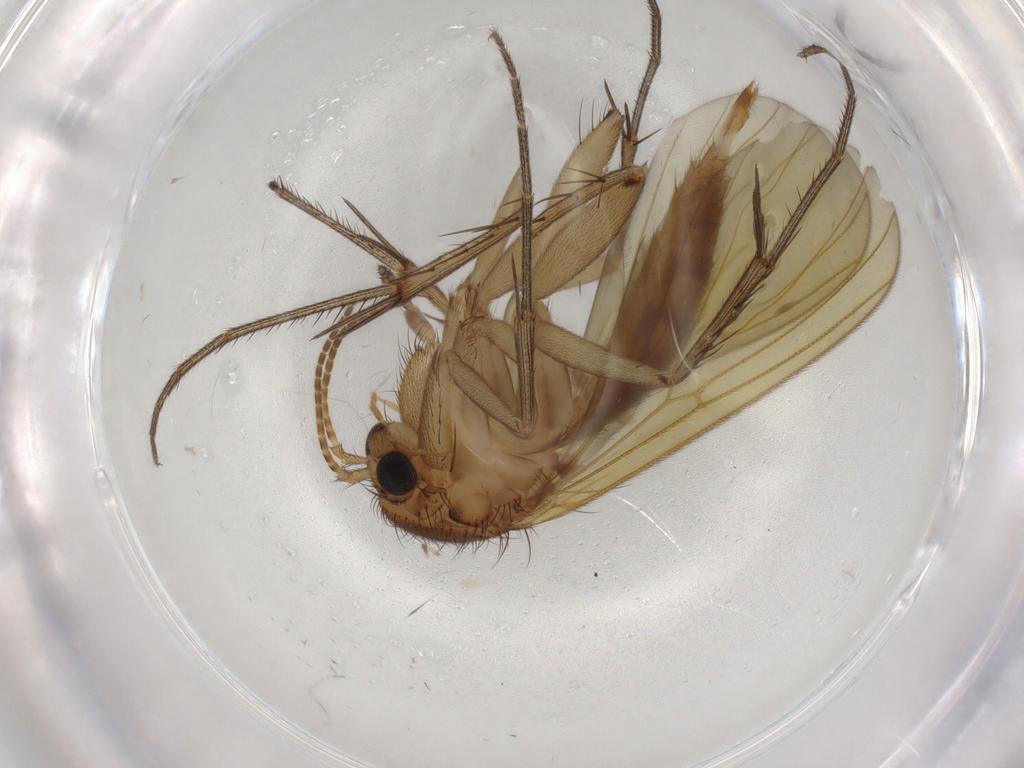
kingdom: Animalia
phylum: Arthropoda
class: Insecta
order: Diptera
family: Mycetophilidae
